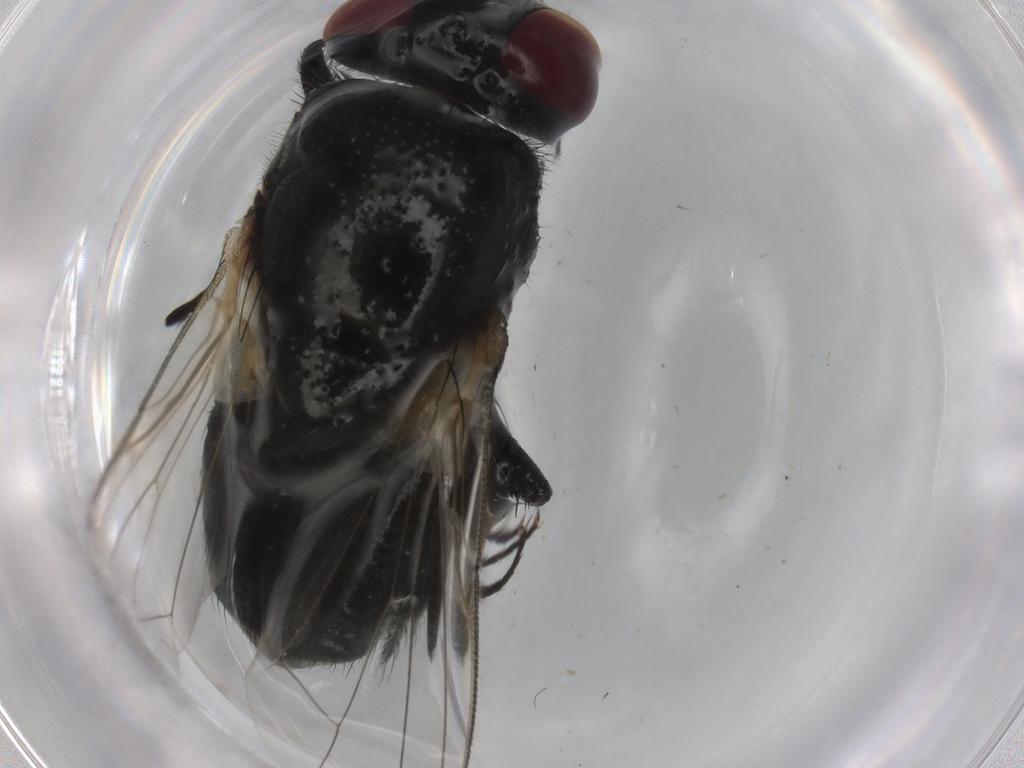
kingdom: Animalia
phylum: Arthropoda
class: Insecta
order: Diptera
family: Muscidae
